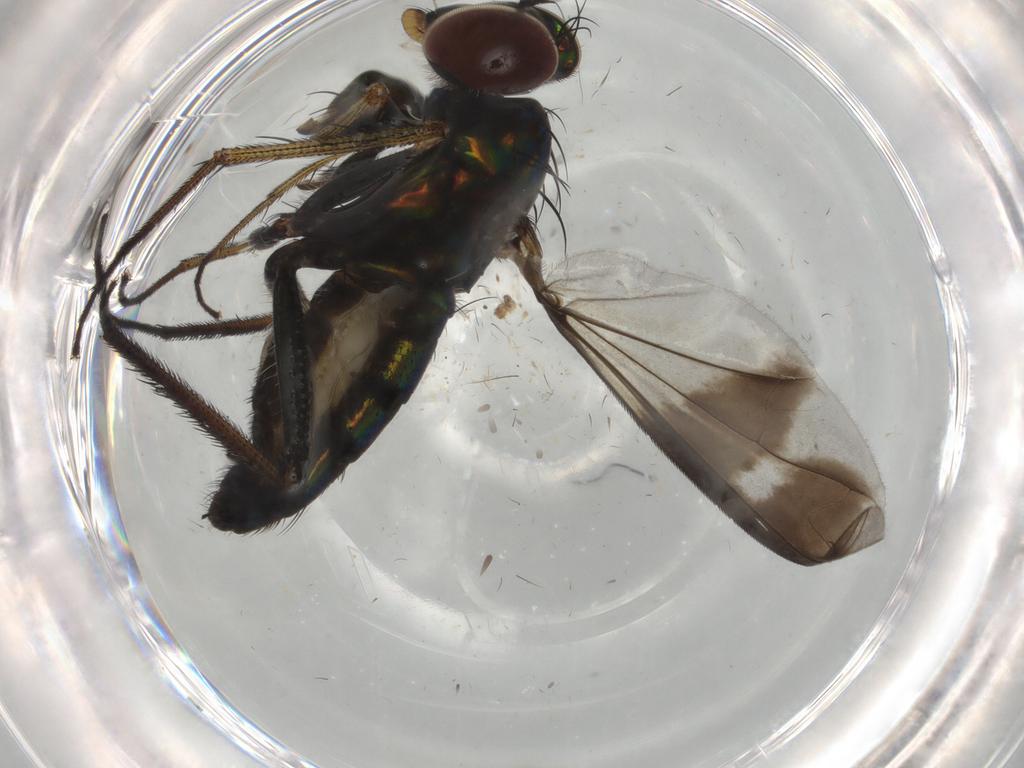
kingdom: Animalia
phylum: Arthropoda
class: Insecta
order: Diptera
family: Dolichopodidae
